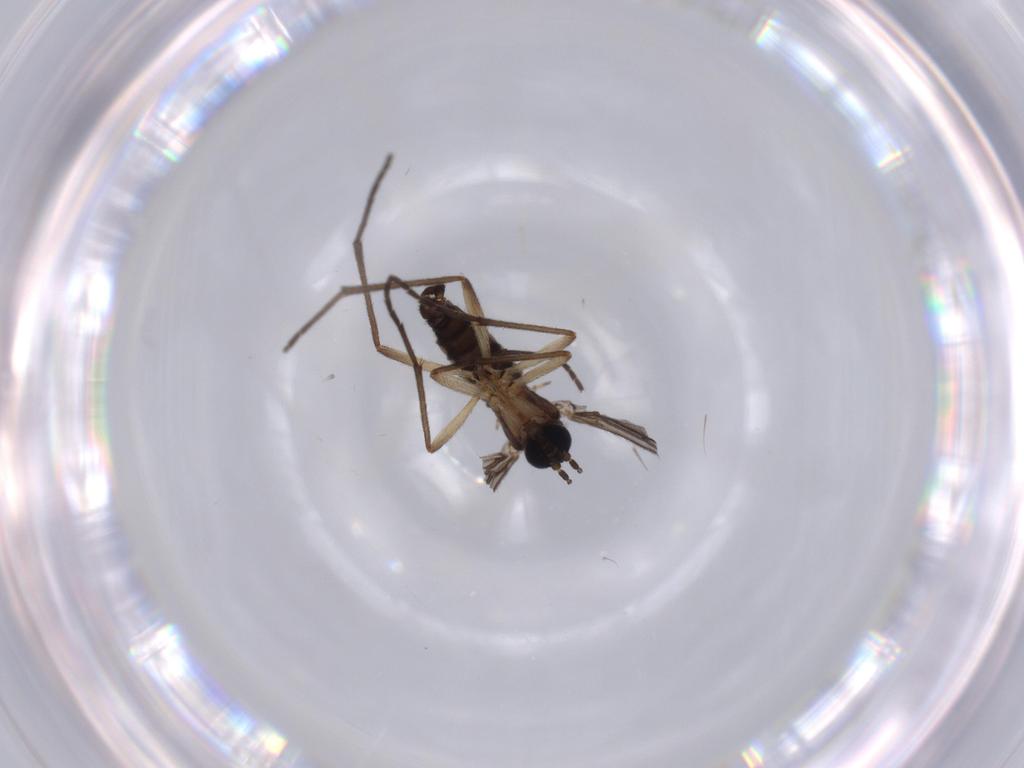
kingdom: Animalia
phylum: Arthropoda
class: Insecta
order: Diptera
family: Sciaridae
